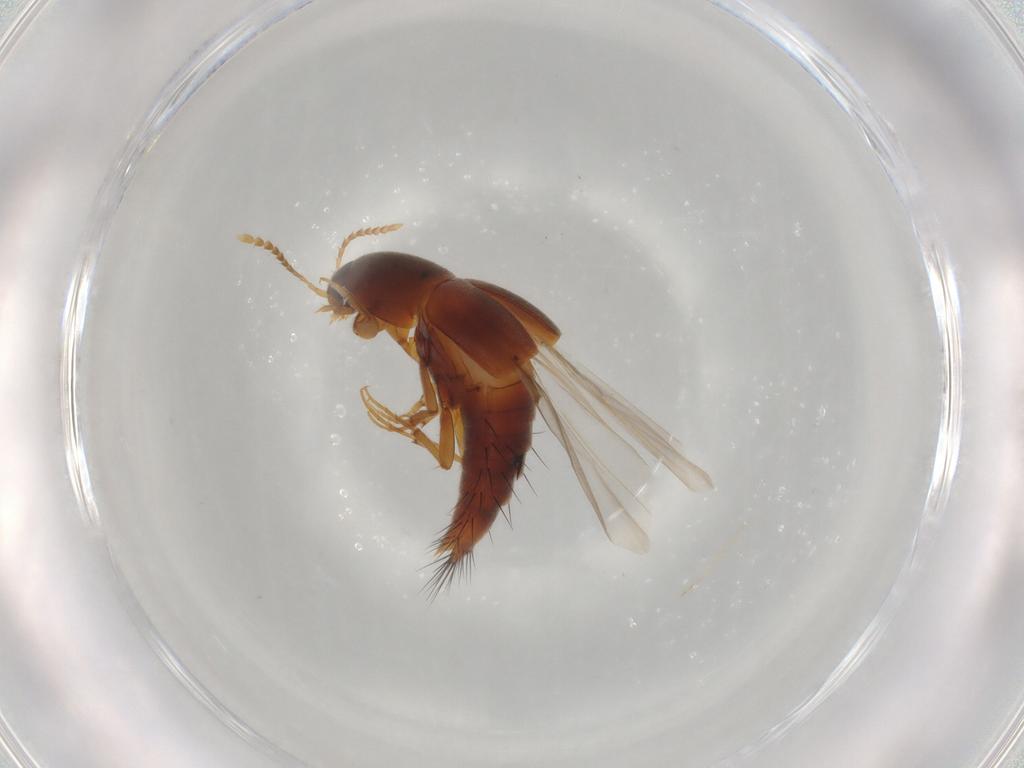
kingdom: Animalia
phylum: Arthropoda
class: Insecta
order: Coleoptera
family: Staphylinidae
